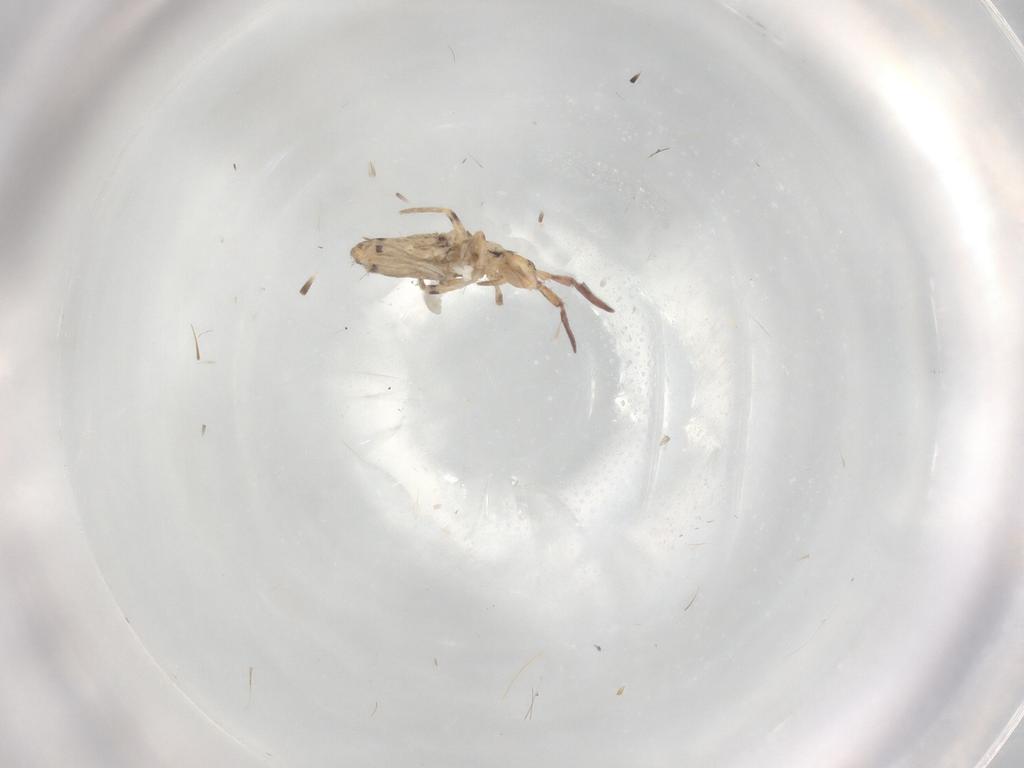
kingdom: Animalia
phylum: Arthropoda
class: Collembola
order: Entomobryomorpha
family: Entomobryidae
